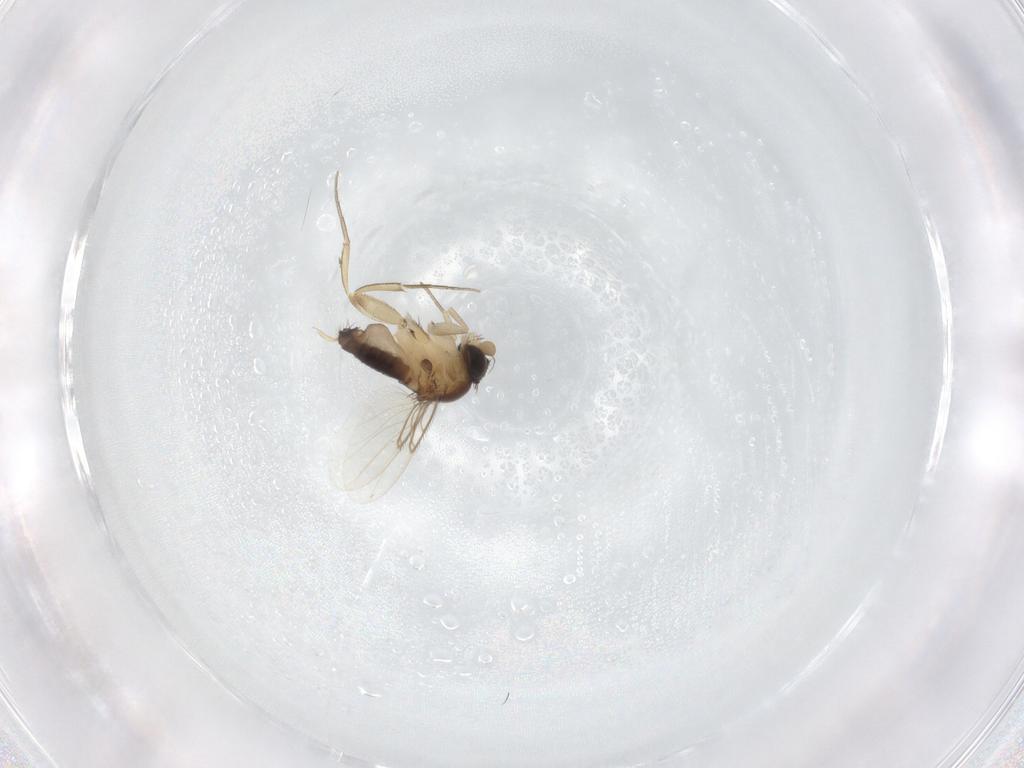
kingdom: Animalia
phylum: Arthropoda
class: Insecta
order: Diptera
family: Phoridae
